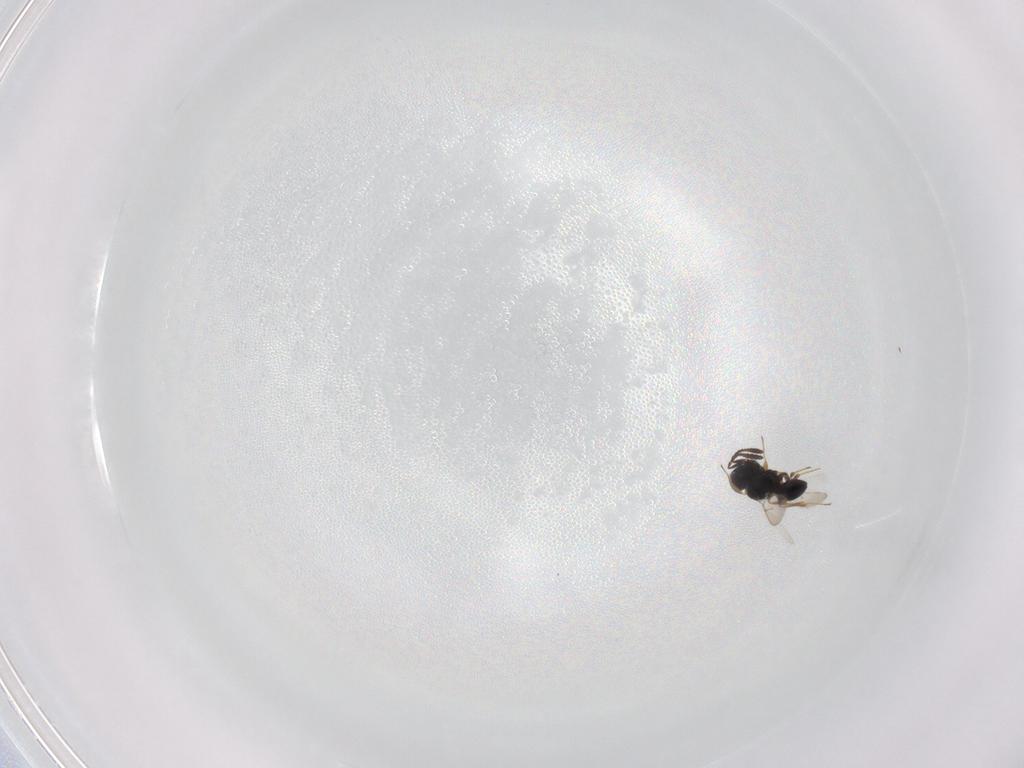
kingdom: Animalia
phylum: Arthropoda
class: Insecta
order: Hymenoptera
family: Scelionidae
